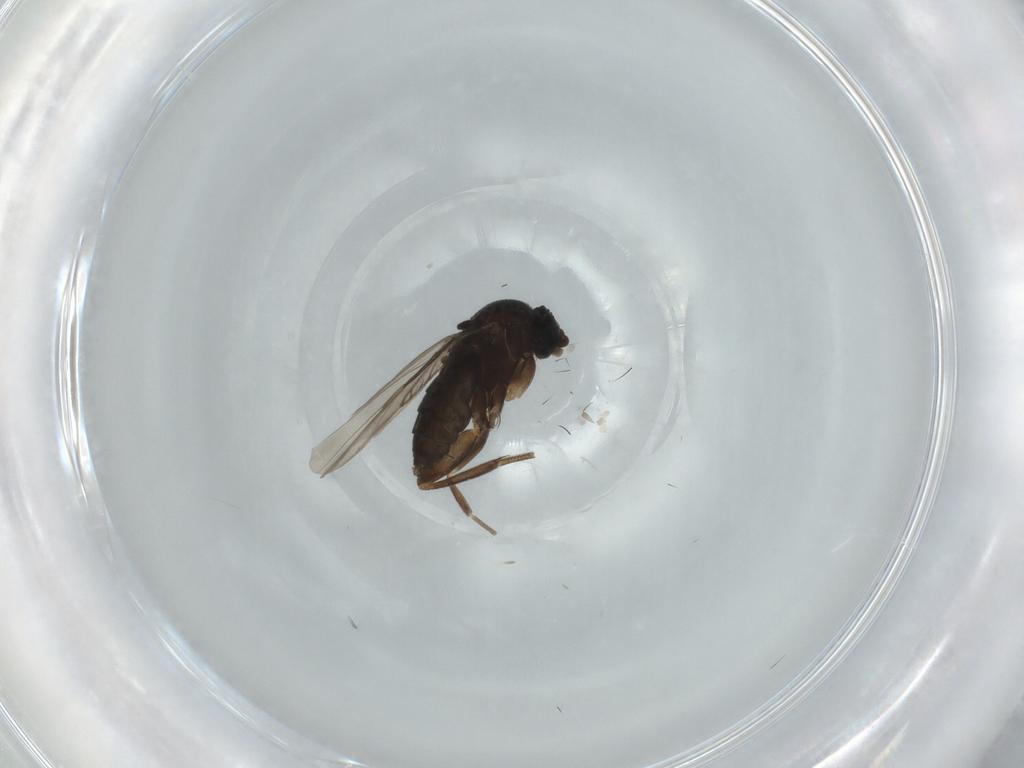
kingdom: Animalia
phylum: Arthropoda
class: Insecta
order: Diptera
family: Phoridae
